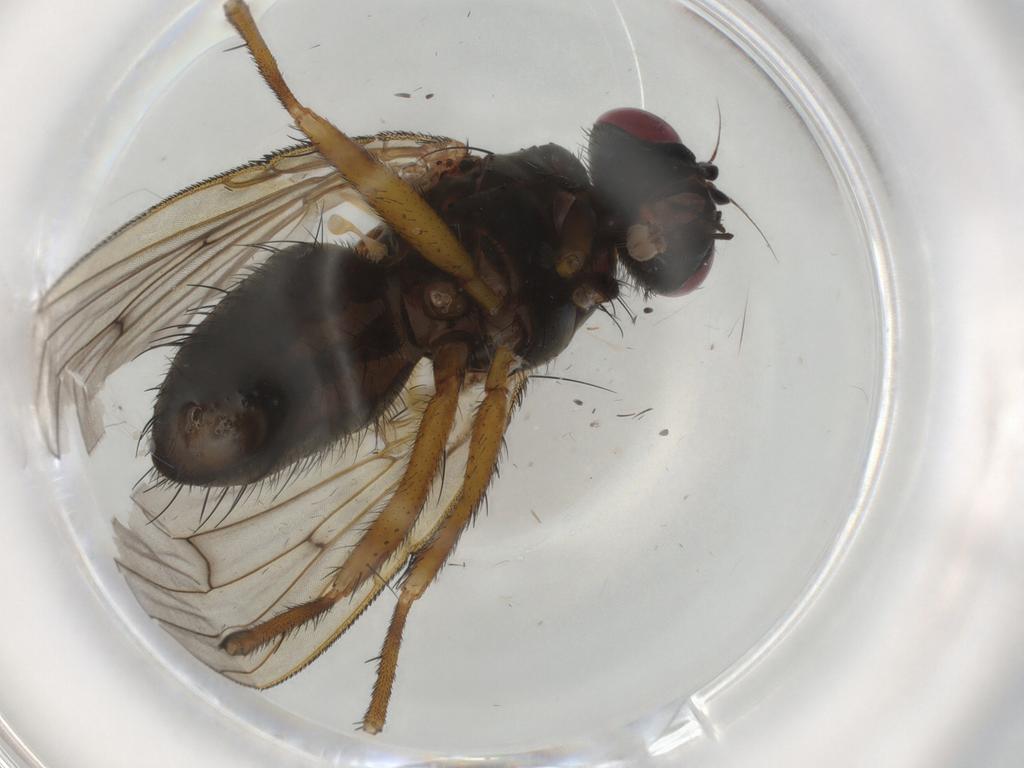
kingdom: Animalia
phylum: Arthropoda
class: Insecta
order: Diptera
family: Muscidae
